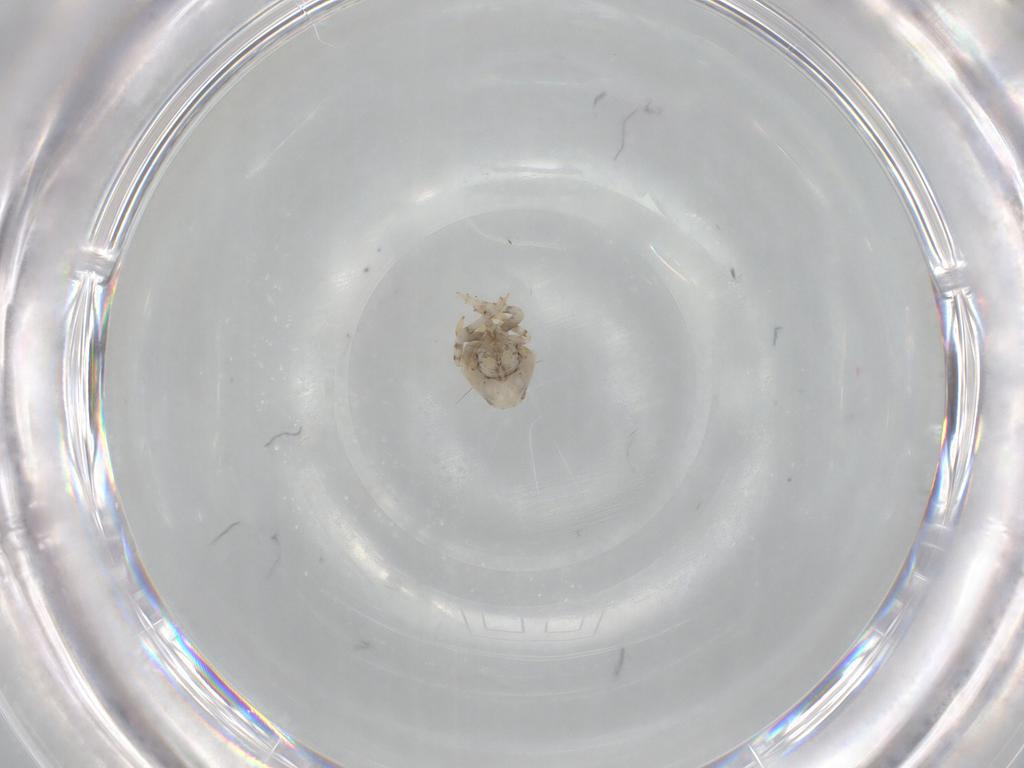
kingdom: Animalia
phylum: Arthropoda
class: Insecta
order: Hemiptera
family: Acanaloniidae
